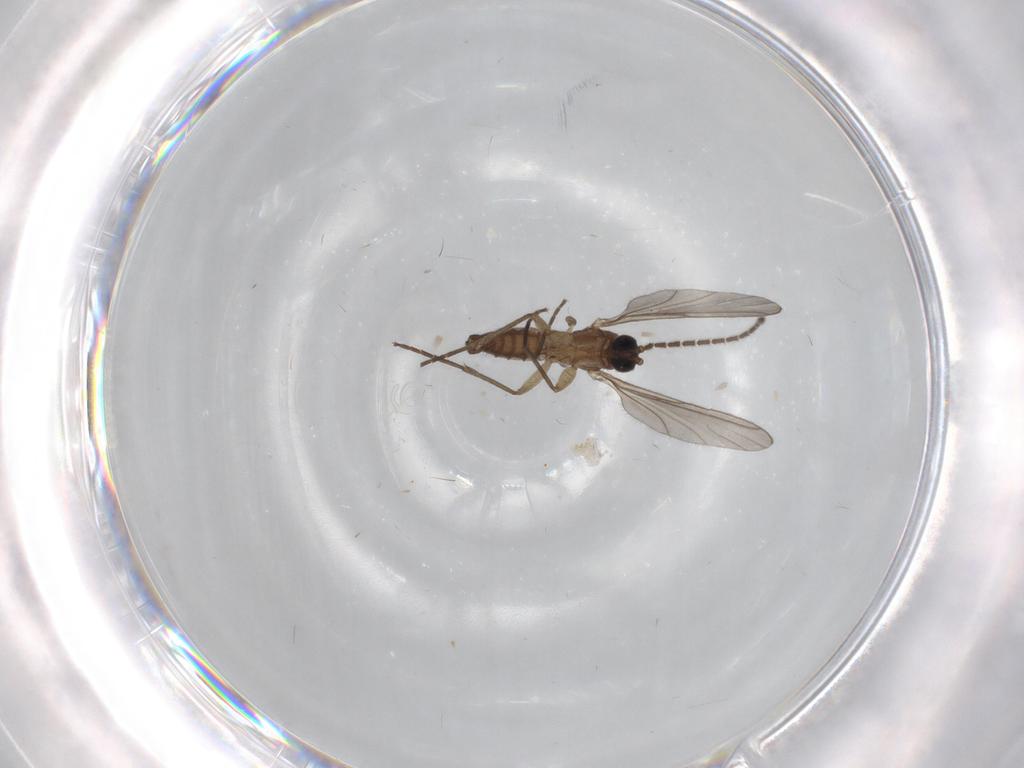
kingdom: Animalia
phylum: Arthropoda
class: Insecta
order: Diptera
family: Sciaridae
